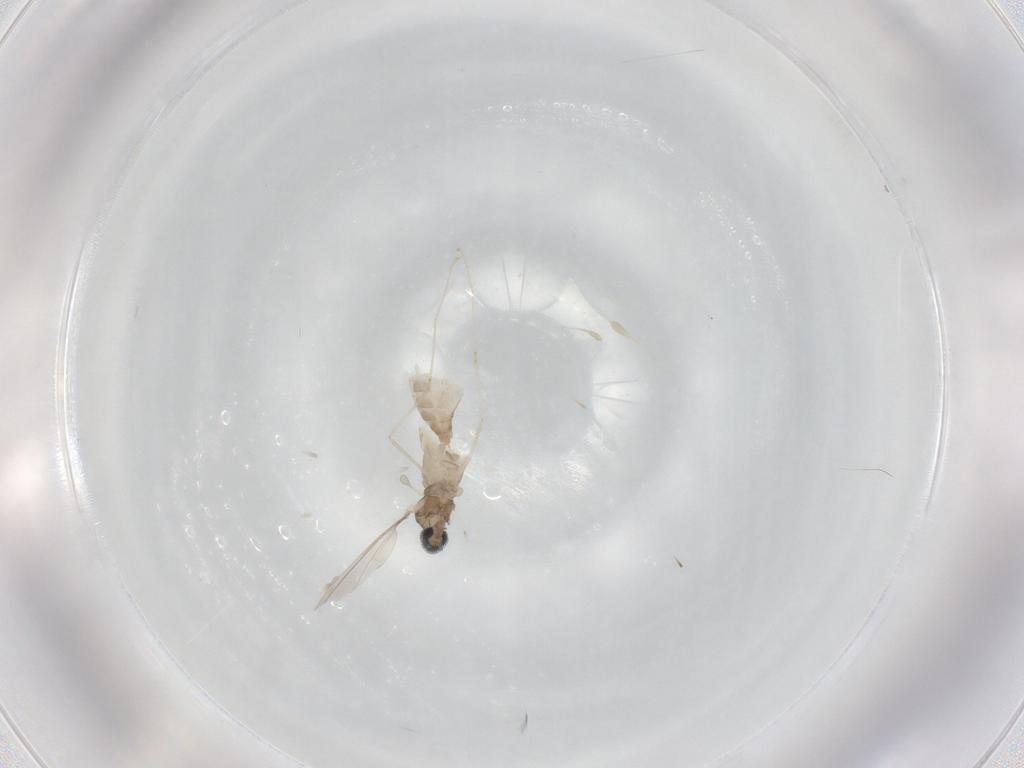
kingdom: Animalia
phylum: Arthropoda
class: Insecta
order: Diptera
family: Cecidomyiidae
